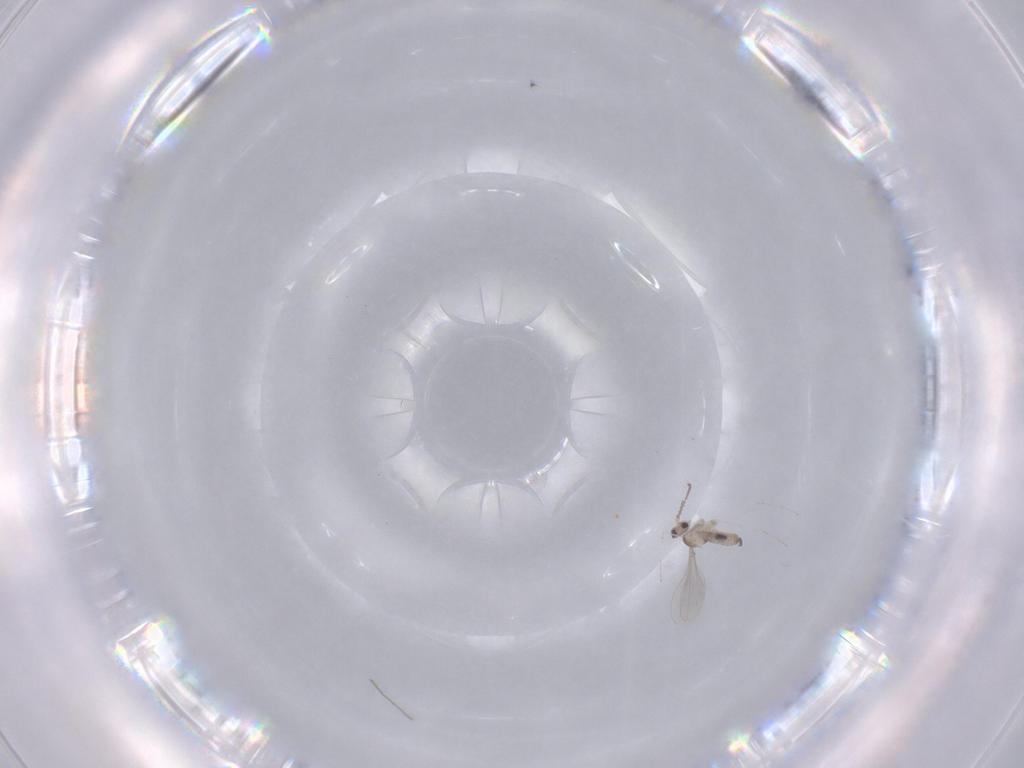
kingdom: Animalia
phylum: Arthropoda
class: Insecta
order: Diptera
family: Cecidomyiidae
